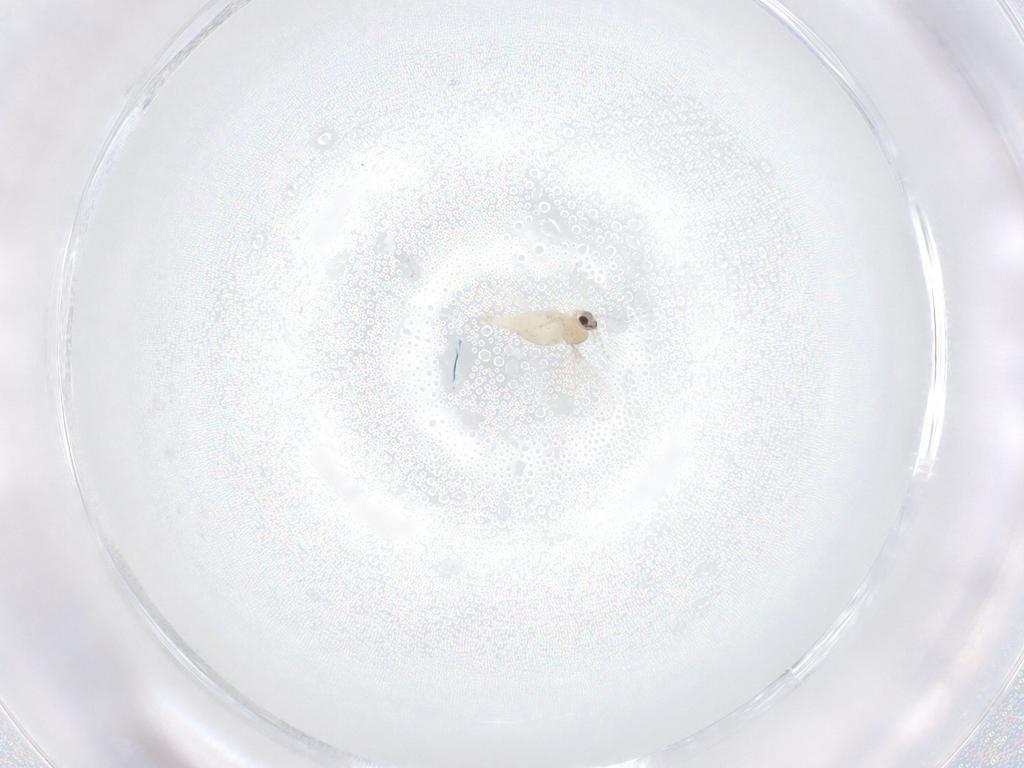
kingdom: Animalia
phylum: Arthropoda
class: Insecta
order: Diptera
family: Cecidomyiidae
